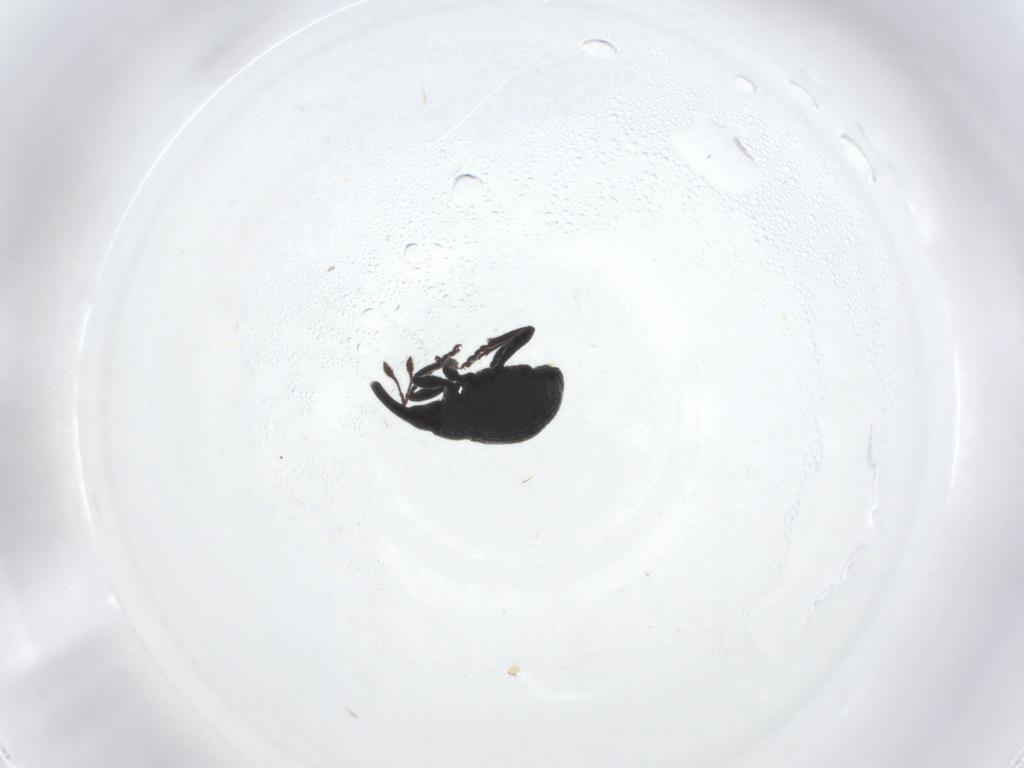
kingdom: Animalia
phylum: Arthropoda
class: Insecta
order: Coleoptera
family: Brentidae
